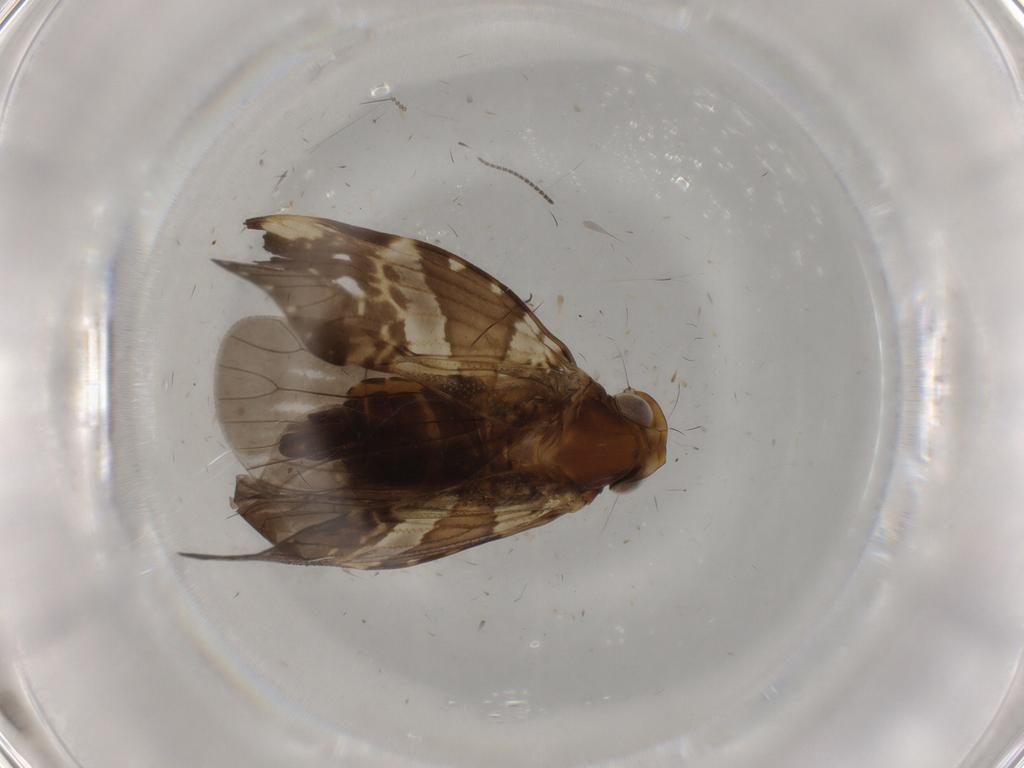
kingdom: Animalia
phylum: Arthropoda
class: Insecta
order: Hemiptera
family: Cixiidae
